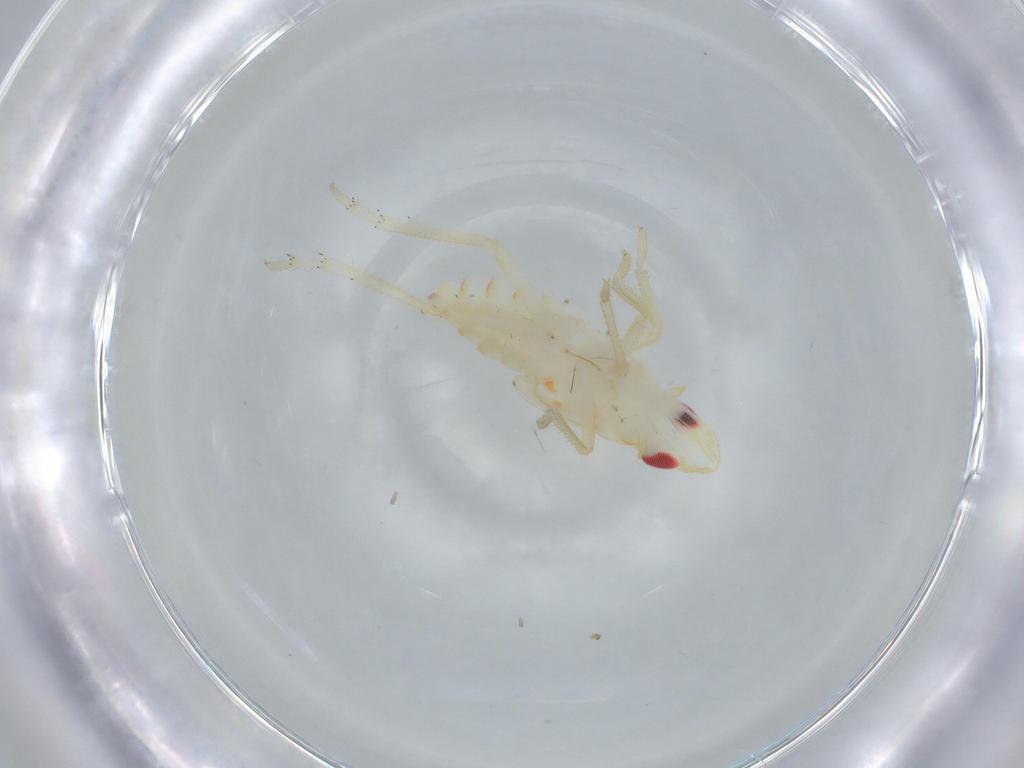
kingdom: Animalia
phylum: Arthropoda
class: Insecta
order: Hemiptera
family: Tropiduchidae
